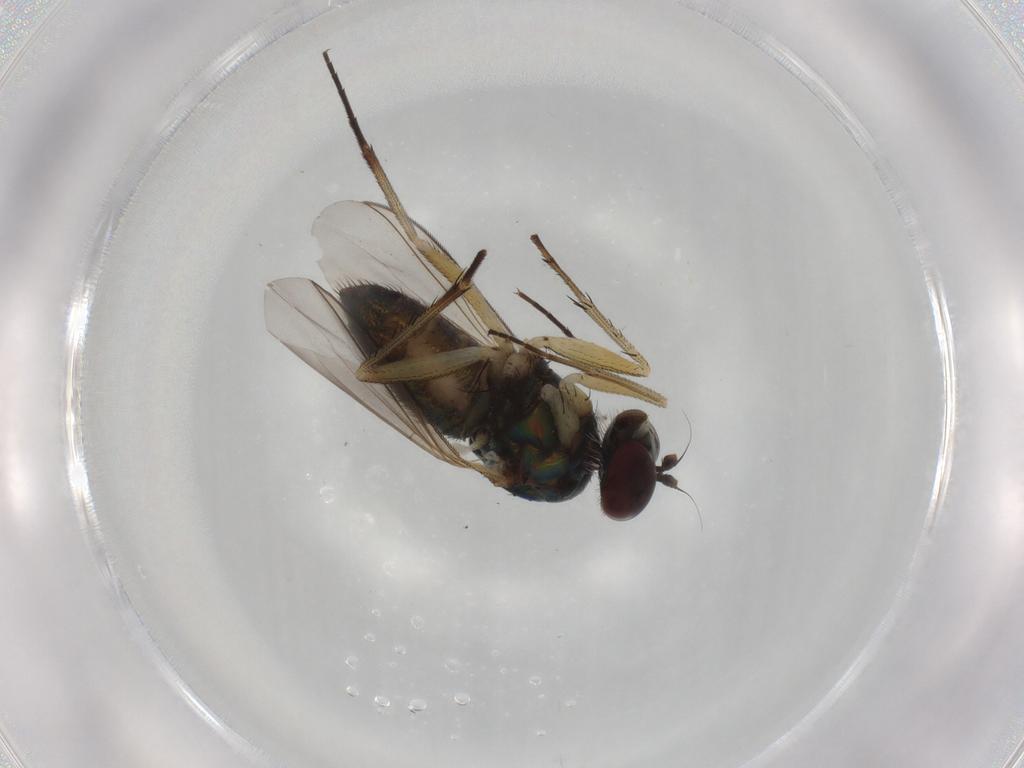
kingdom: Animalia
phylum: Arthropoda
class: Insecta
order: Diptera
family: Dolichopodidae
